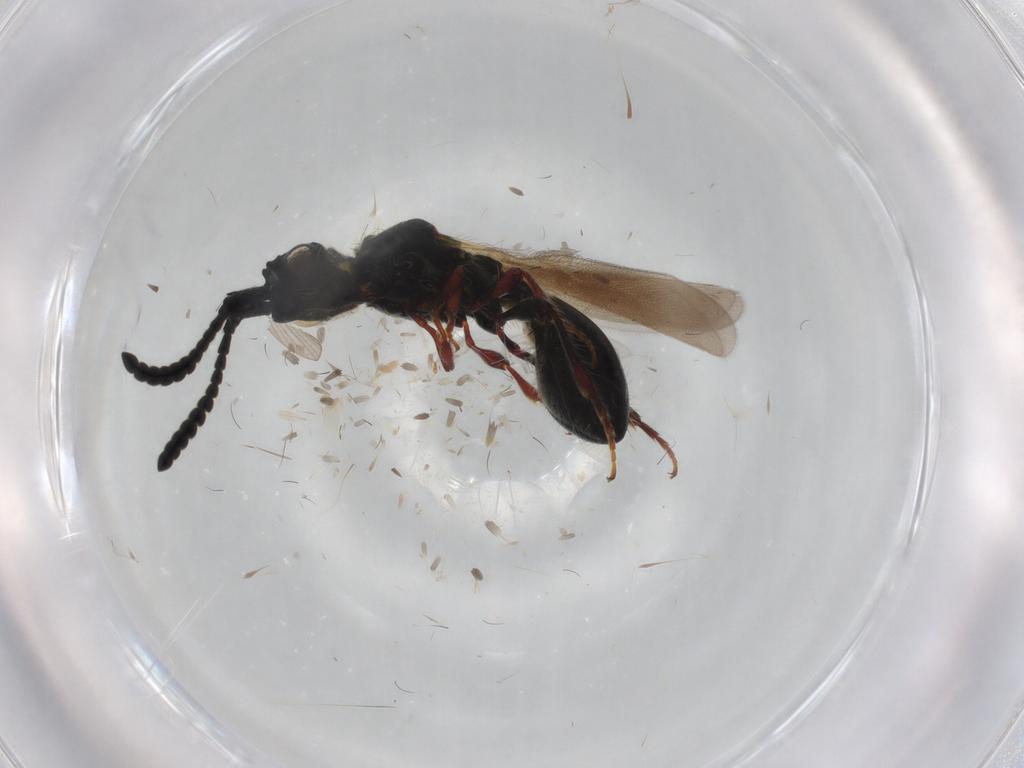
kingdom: Animalia
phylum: Arthropoda
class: Insecta
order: Hymenoptera
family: Diapriidae
